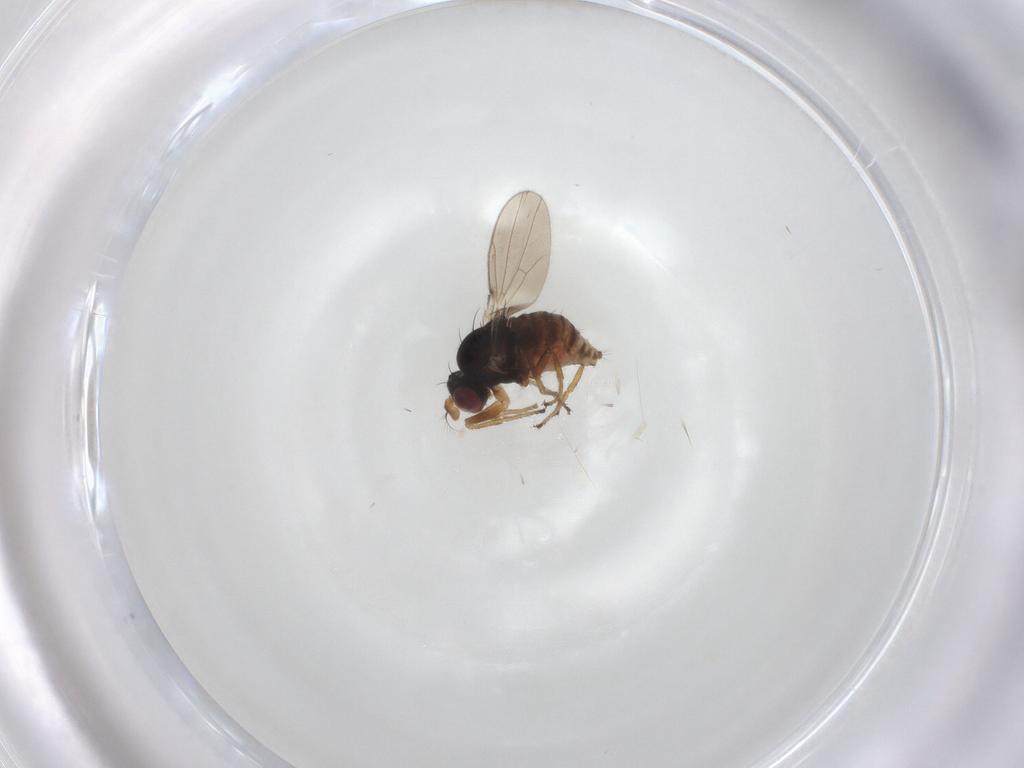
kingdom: Animalia
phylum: Arthropoda
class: Insecta
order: Diptera
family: Ephydridae
